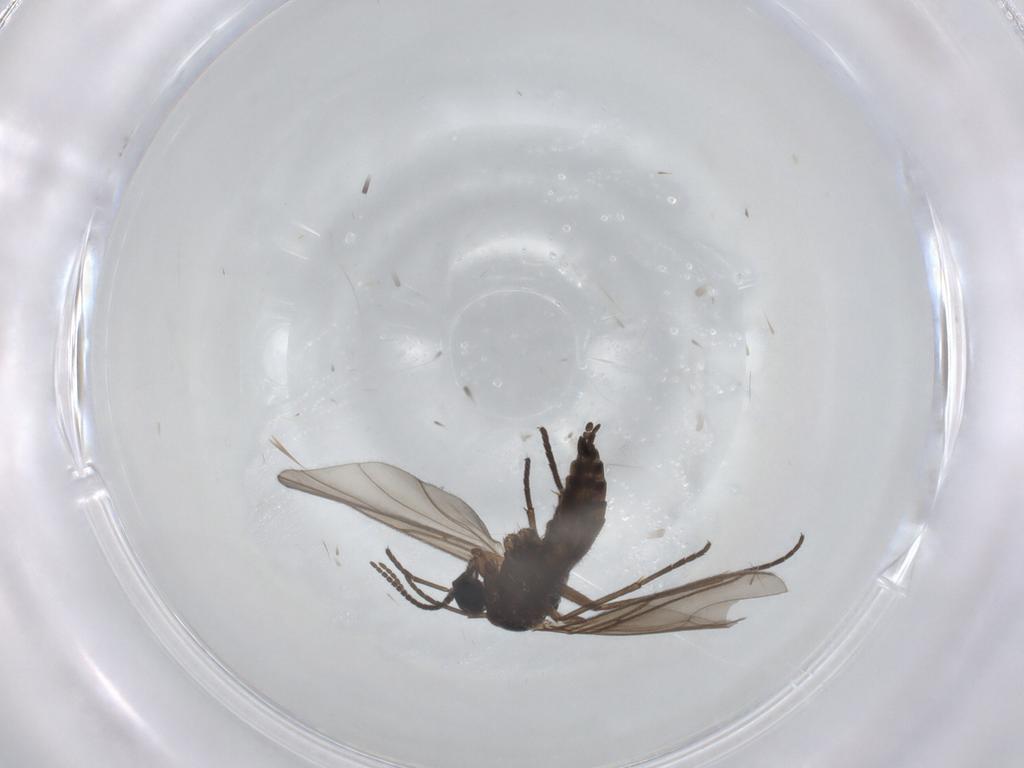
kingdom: Animalia
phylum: Arthropoda
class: Insecta
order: Diptera
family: Sciaridae
